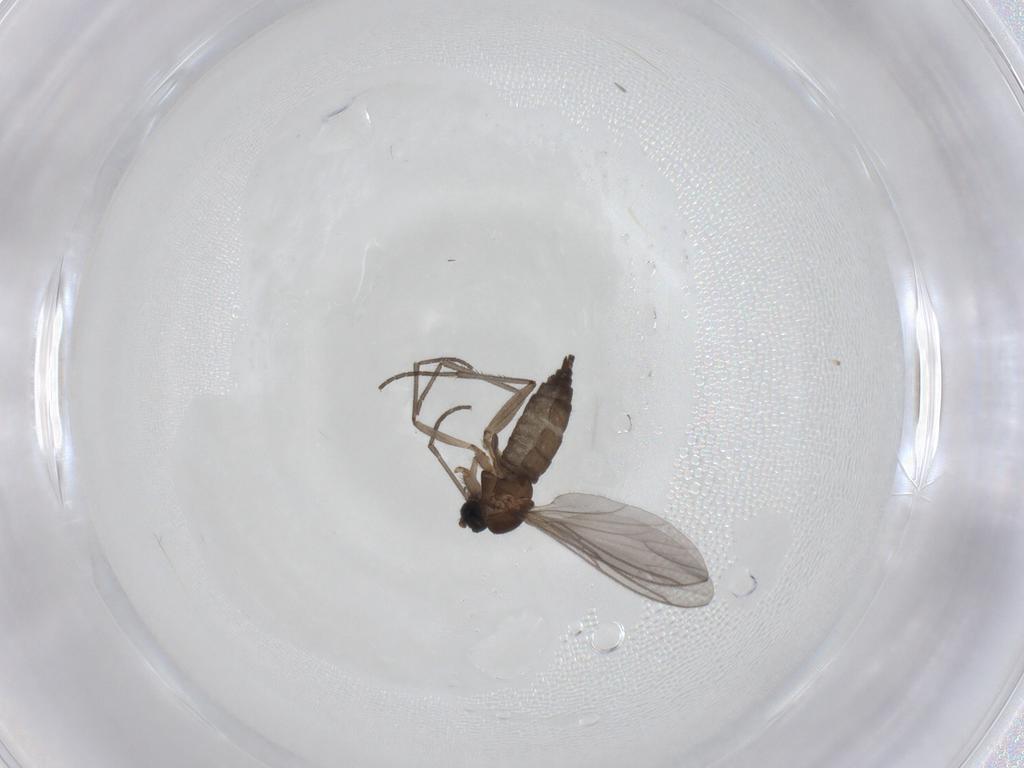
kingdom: Animalia
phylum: Arthropoda
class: Insecta
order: Diptera
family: Sciaridae
